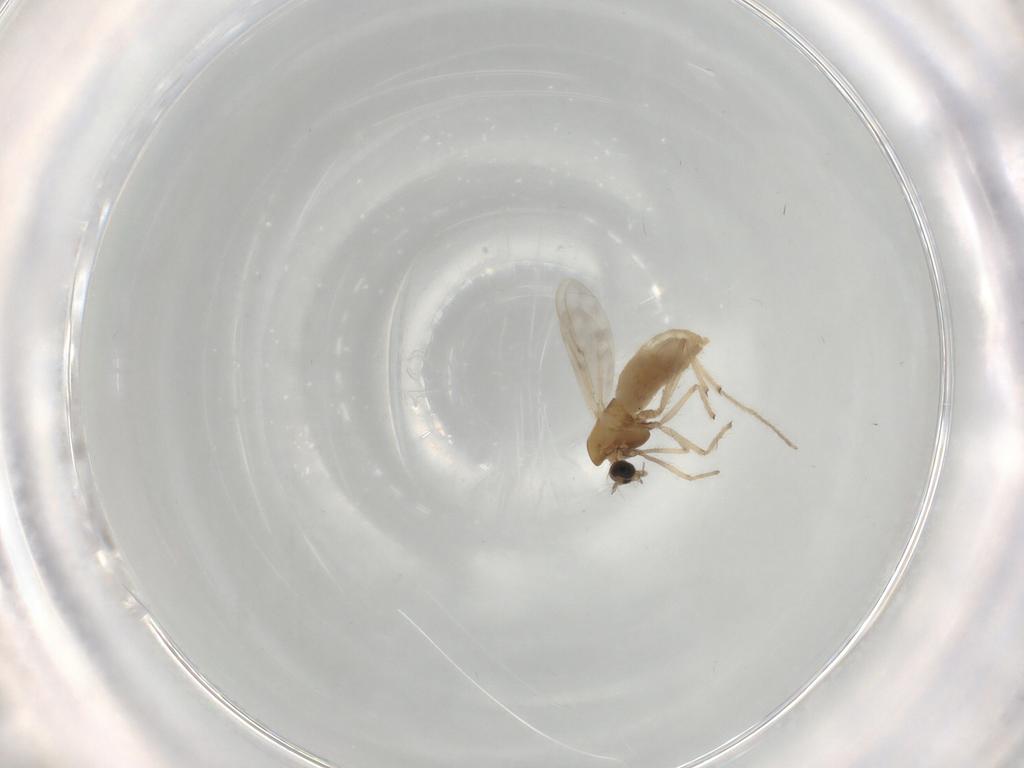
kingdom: Animalia
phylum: Arthropoda
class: Insecta
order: Diptera
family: Chironomidae
